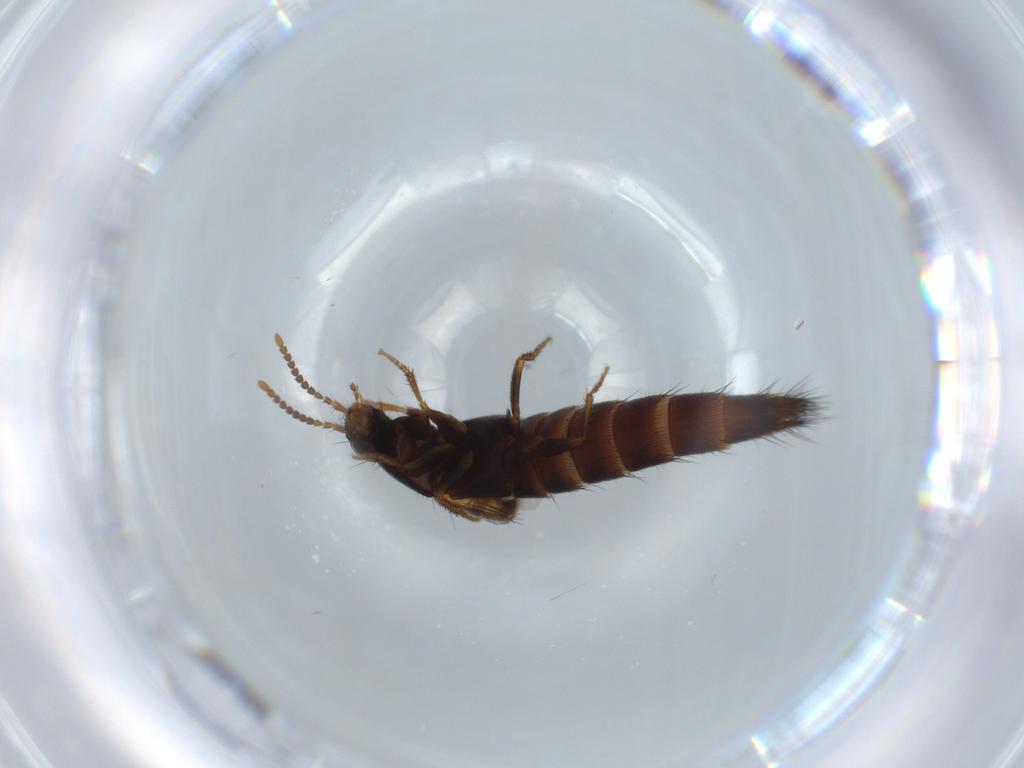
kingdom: Animalia
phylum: Arthropoda
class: Insecta
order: Coleoptera
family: Staphylinidae
